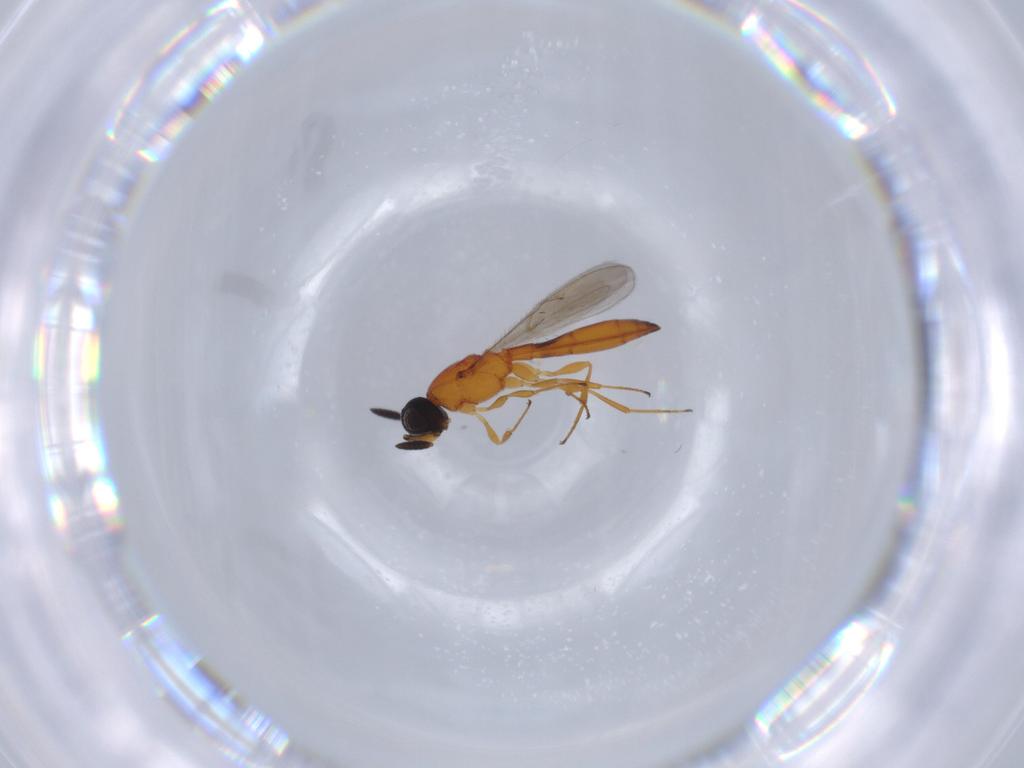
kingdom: Animalia
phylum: Arthropoda
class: Insecta
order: Hymenoptera
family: Scelionidae
